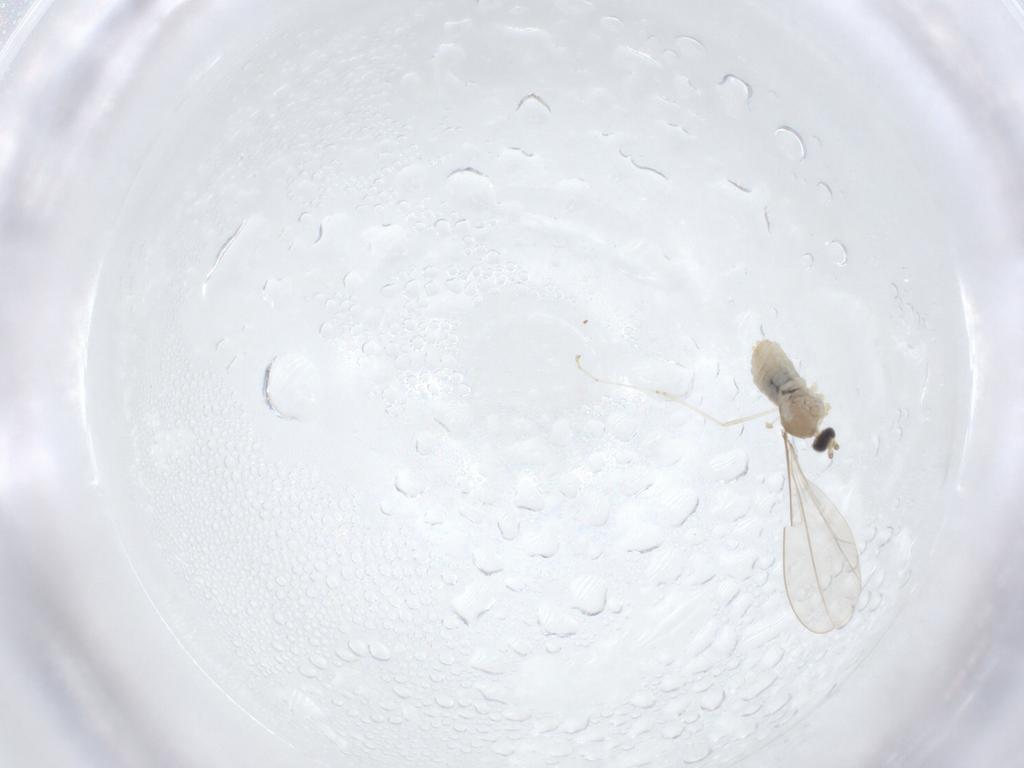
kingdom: Animalia
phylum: Arthropoda
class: Insecta
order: Diptera
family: Cecidomyiidae
